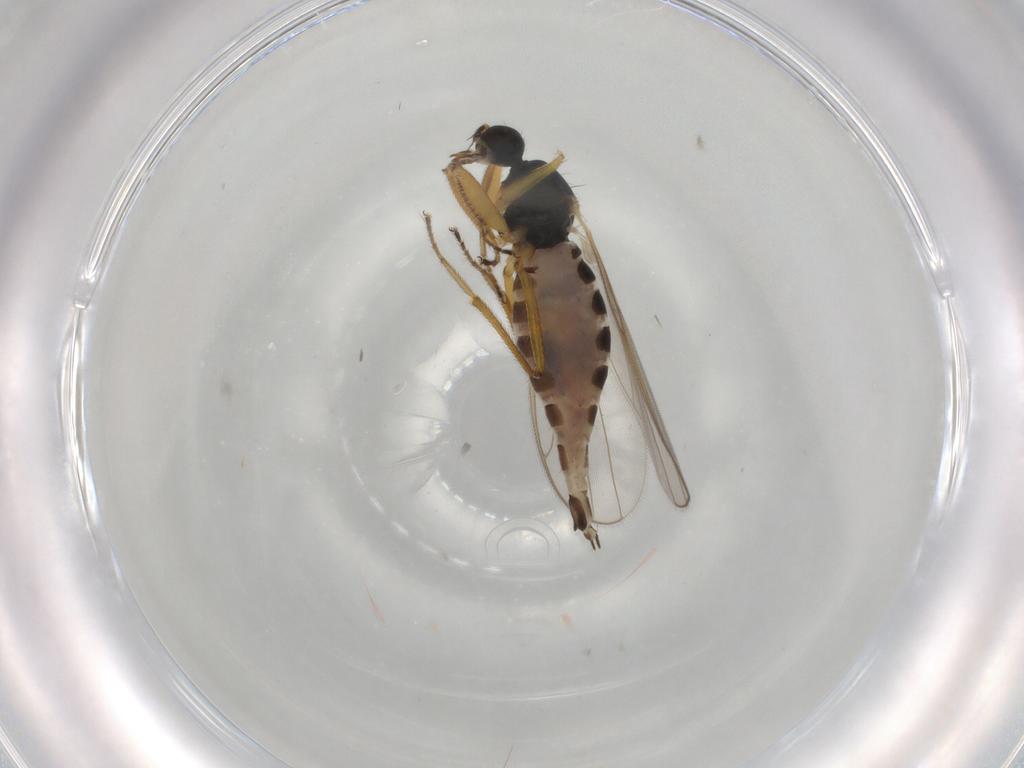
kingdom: Animalia
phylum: Arthropoda
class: Insecta
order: Diptera
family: Hybotidae
